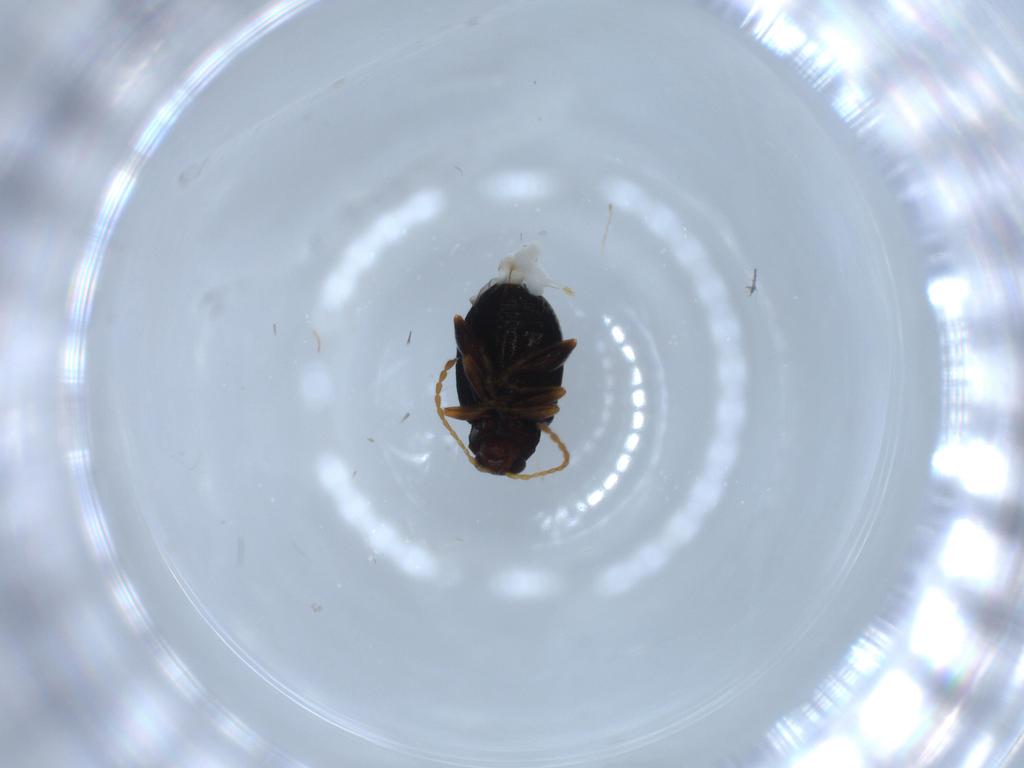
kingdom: Animalia
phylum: Arthropoda
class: Insecta
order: Coleoptera
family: Chrysomelidae
